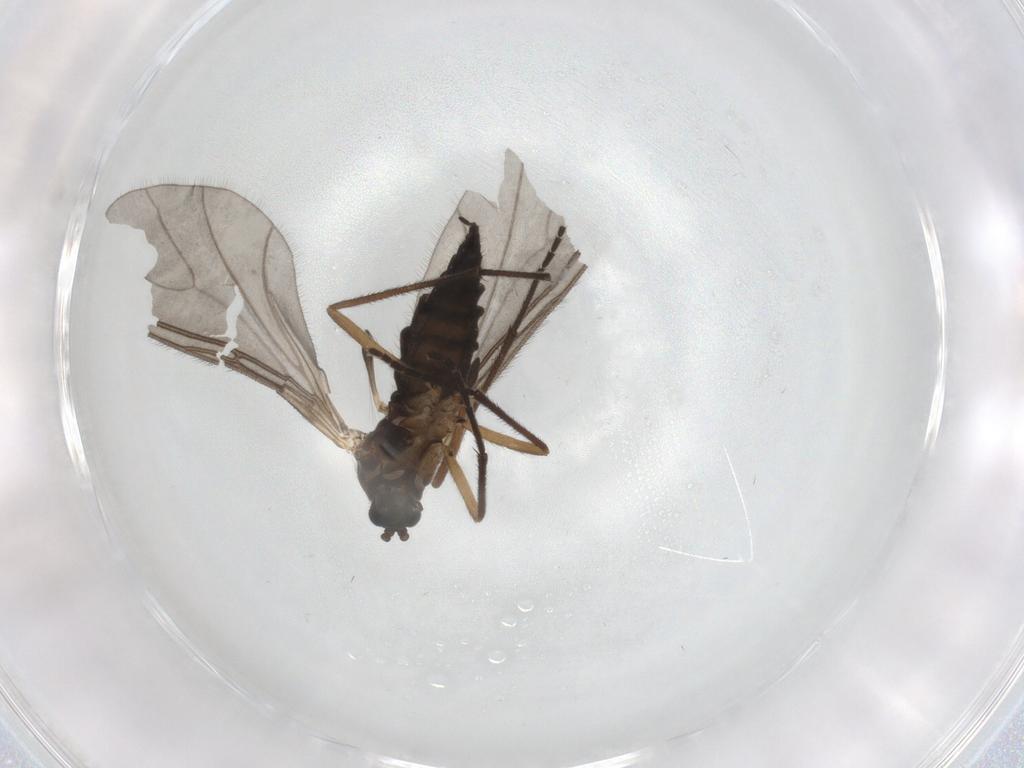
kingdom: Animalia
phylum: Arthropoda
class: Insecta
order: Diptera
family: Sciaridae
